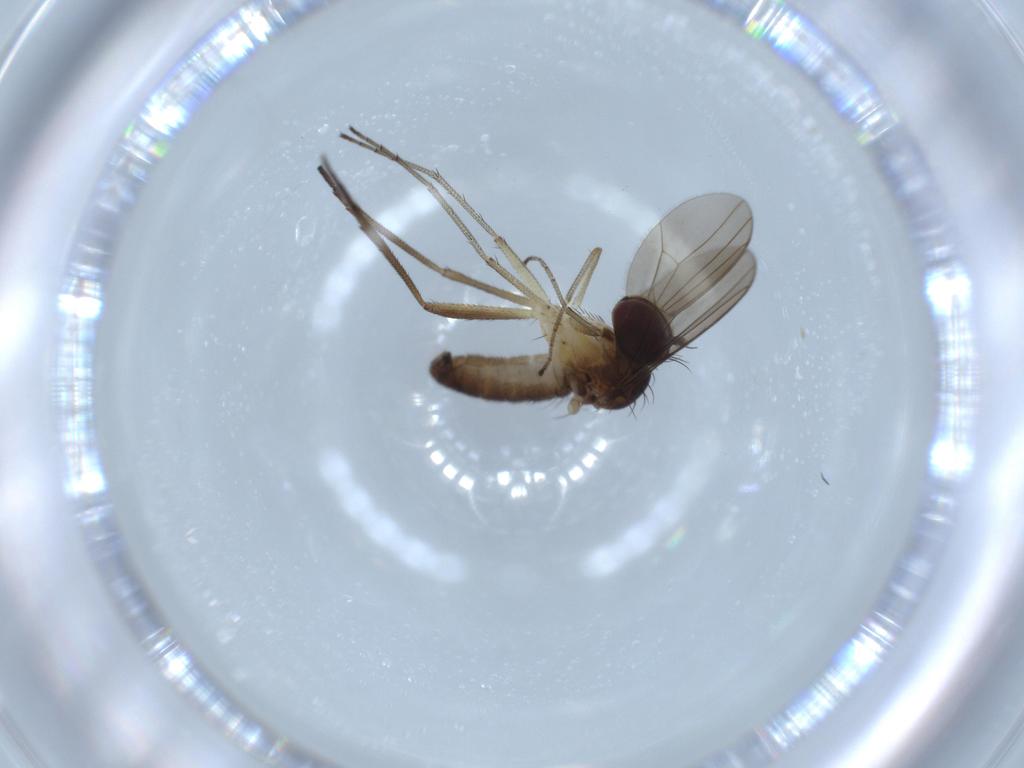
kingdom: Animalia
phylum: Arthropoda
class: Insecta
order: Diptera
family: Dolichopodidae
